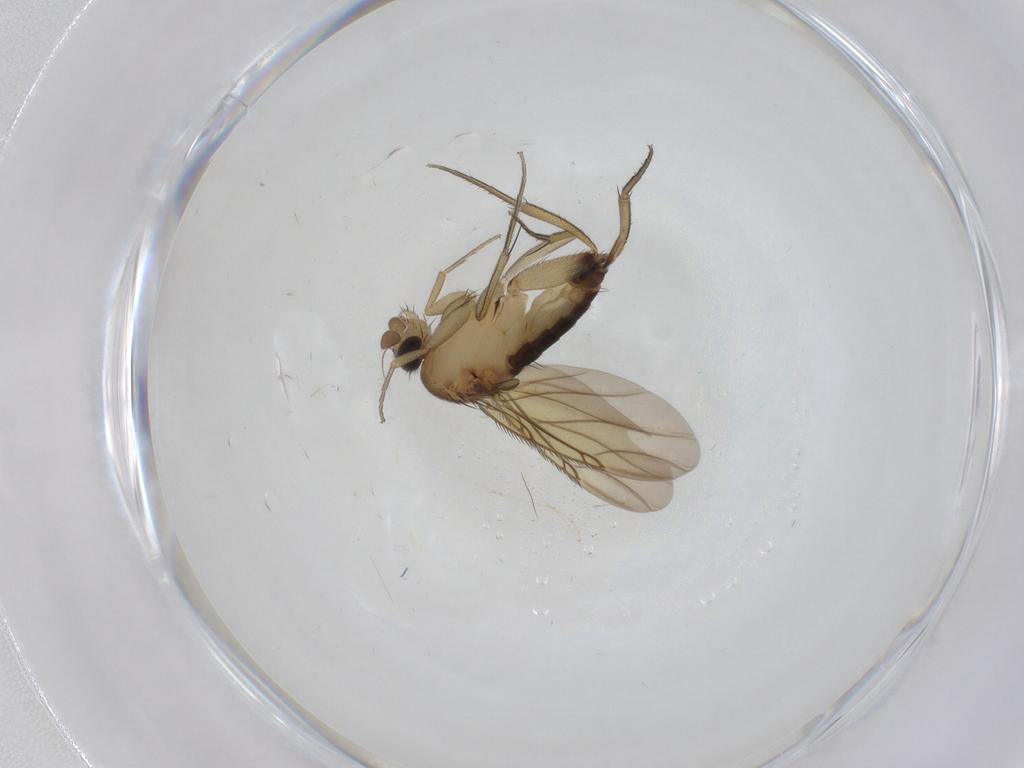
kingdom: Animalia
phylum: Arthropoda
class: Insecta
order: Diptera
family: Phoridae
